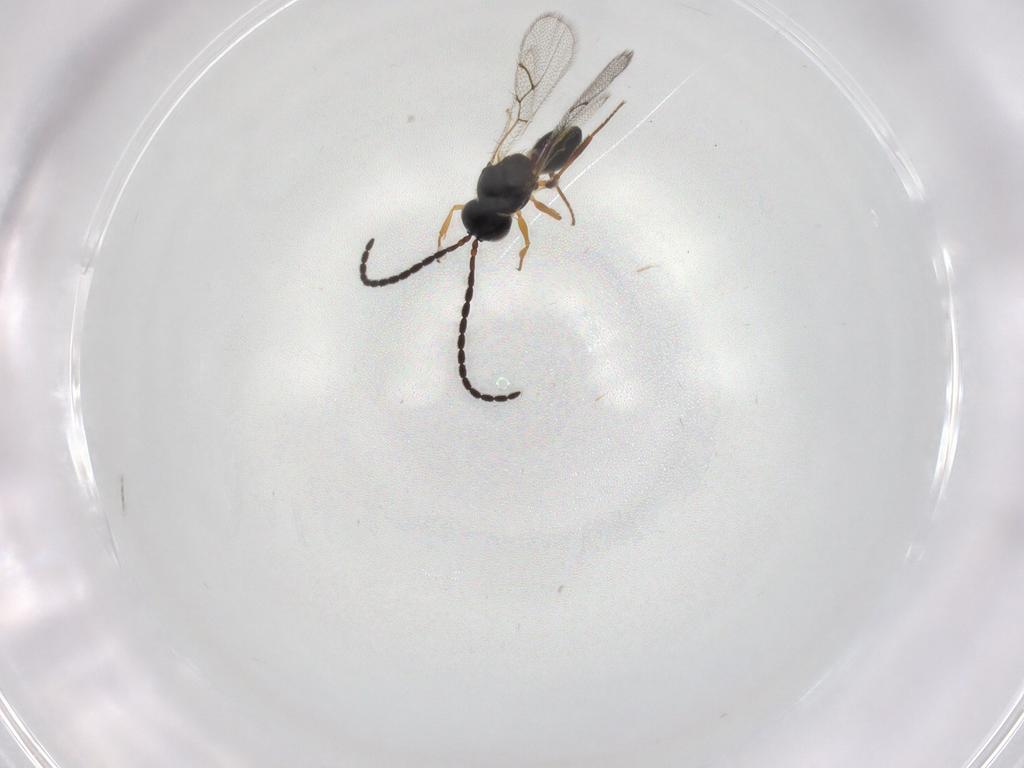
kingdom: Animalia
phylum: Arthropoda
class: Insecta
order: Hymenoptera
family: Figitidae
